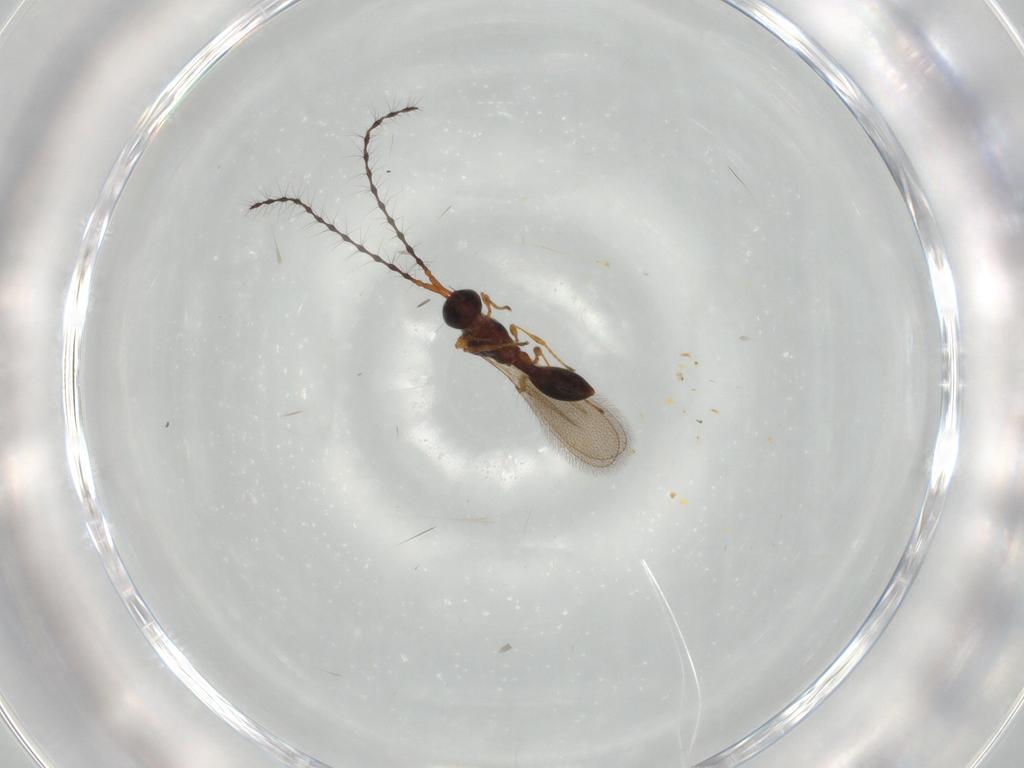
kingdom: Animalia
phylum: Arthropoda
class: Insecta
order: Hymenoptera
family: Diapriidae
